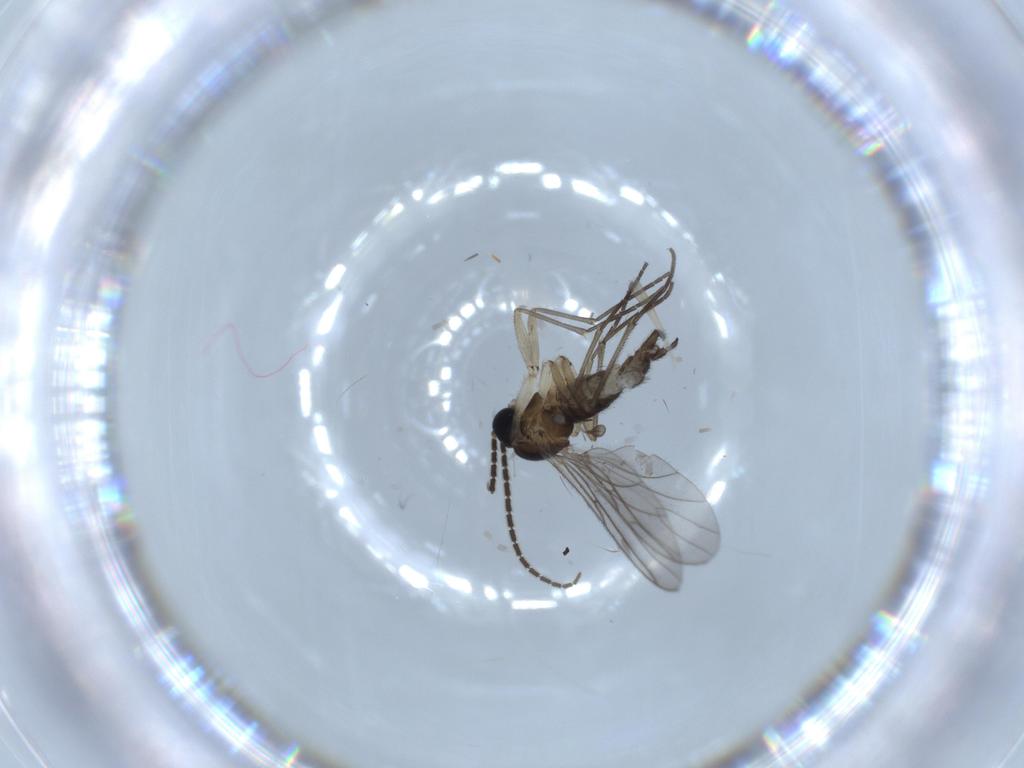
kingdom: Animalia
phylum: Arthropoda
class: Insecta
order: Diptera
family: Sciaridae
